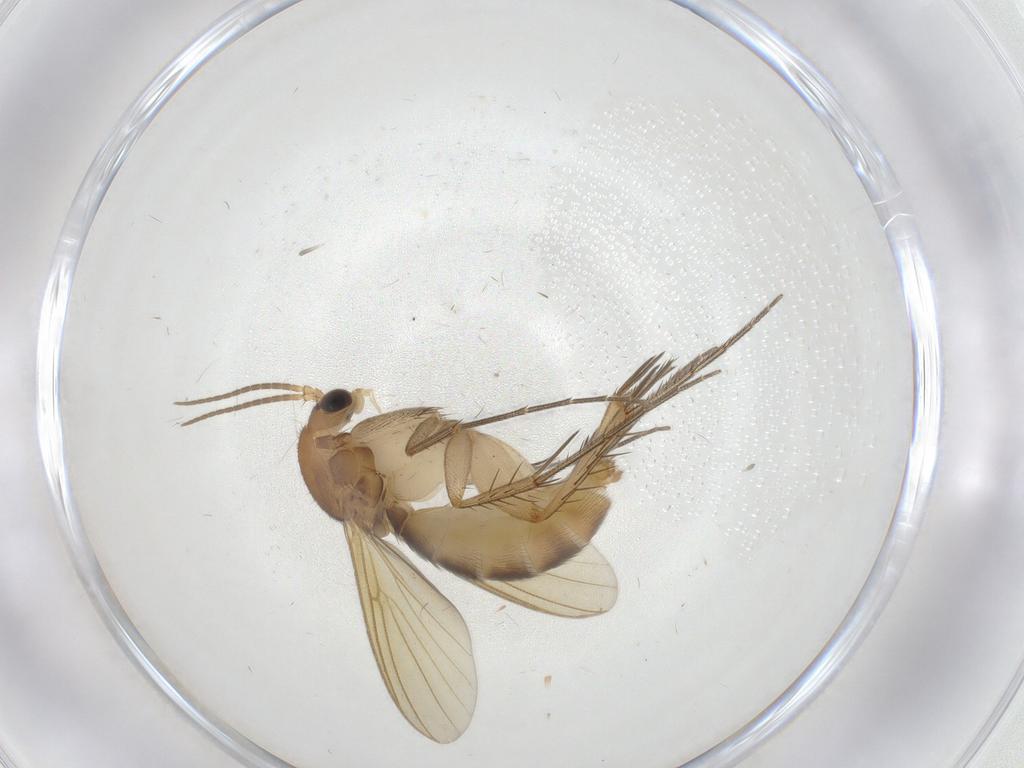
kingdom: Animalia
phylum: Arthropoda
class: Insecta
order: Diptera
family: Mycetophilidae
